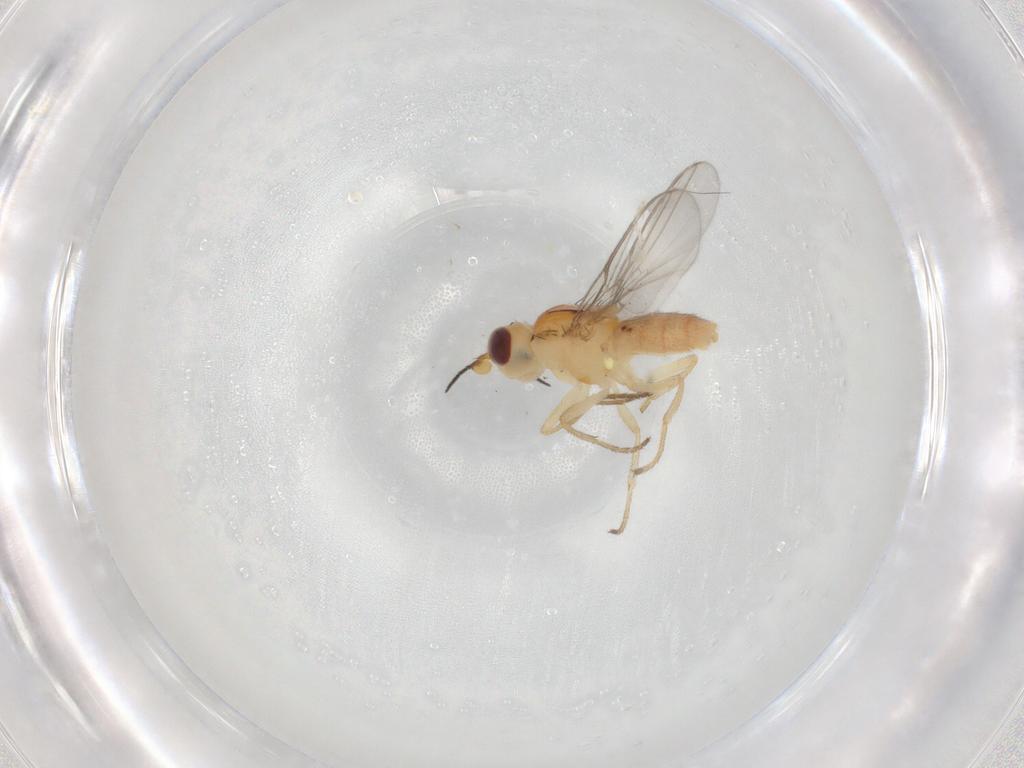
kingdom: Animalia
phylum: Arthropoda
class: Insecta
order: Diptera
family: Chloropidae
